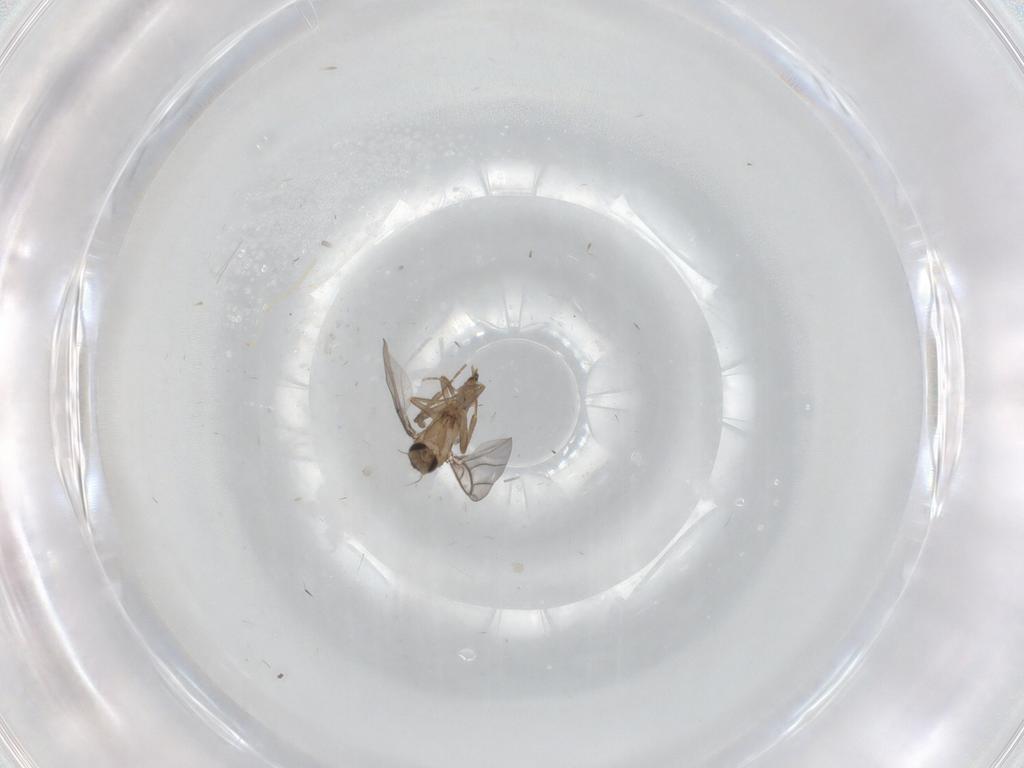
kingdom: Animalia
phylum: Arthropoda
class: Insecta
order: Diptera
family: Cecidomyiidae
